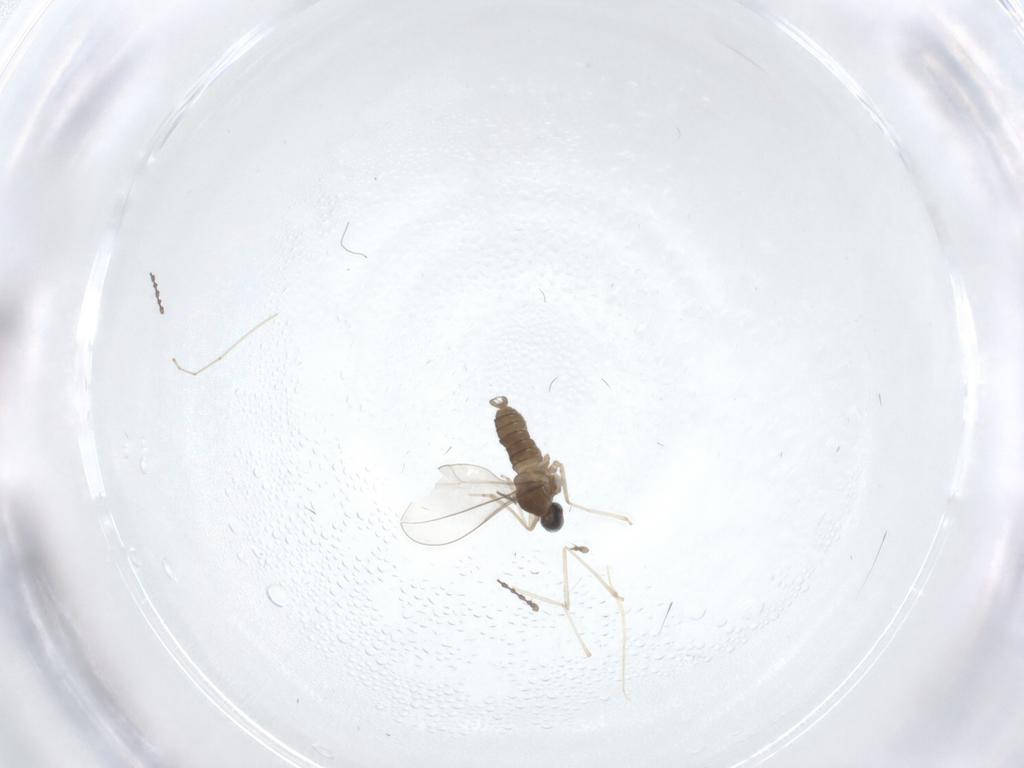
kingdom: Animalia
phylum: Arthropoda
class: Insecta
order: Diptera
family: Cecidomyiidae
